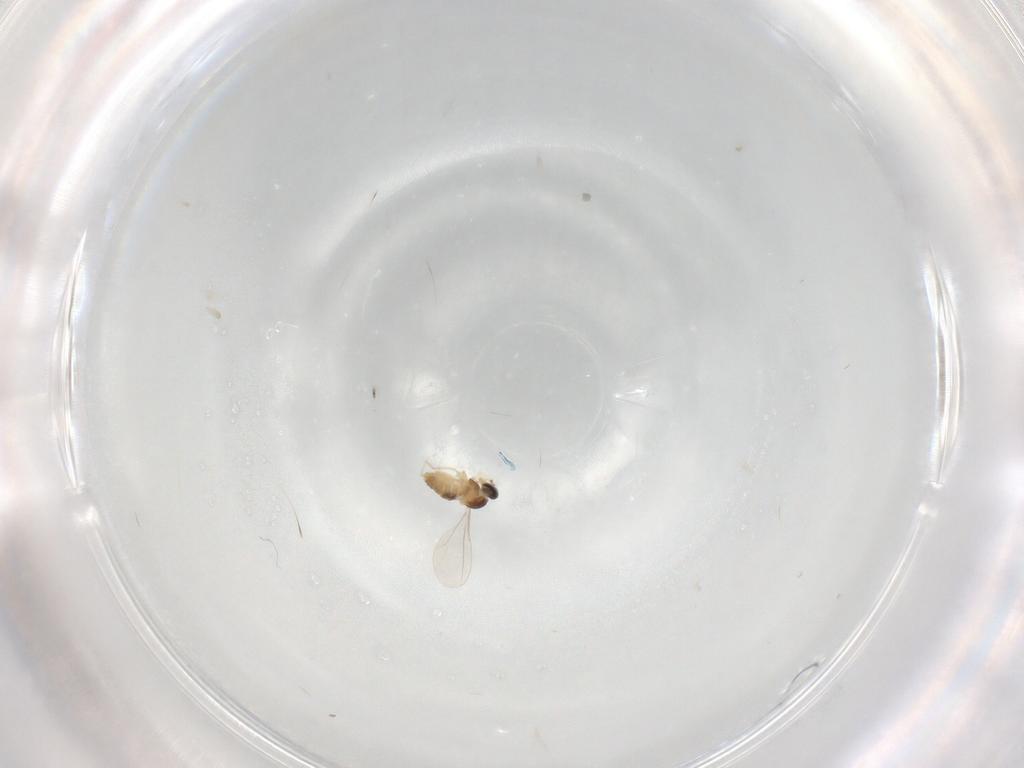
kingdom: Animalia
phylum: Arthropoda
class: Insecta
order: Diptera
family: Cecidomyiidae
